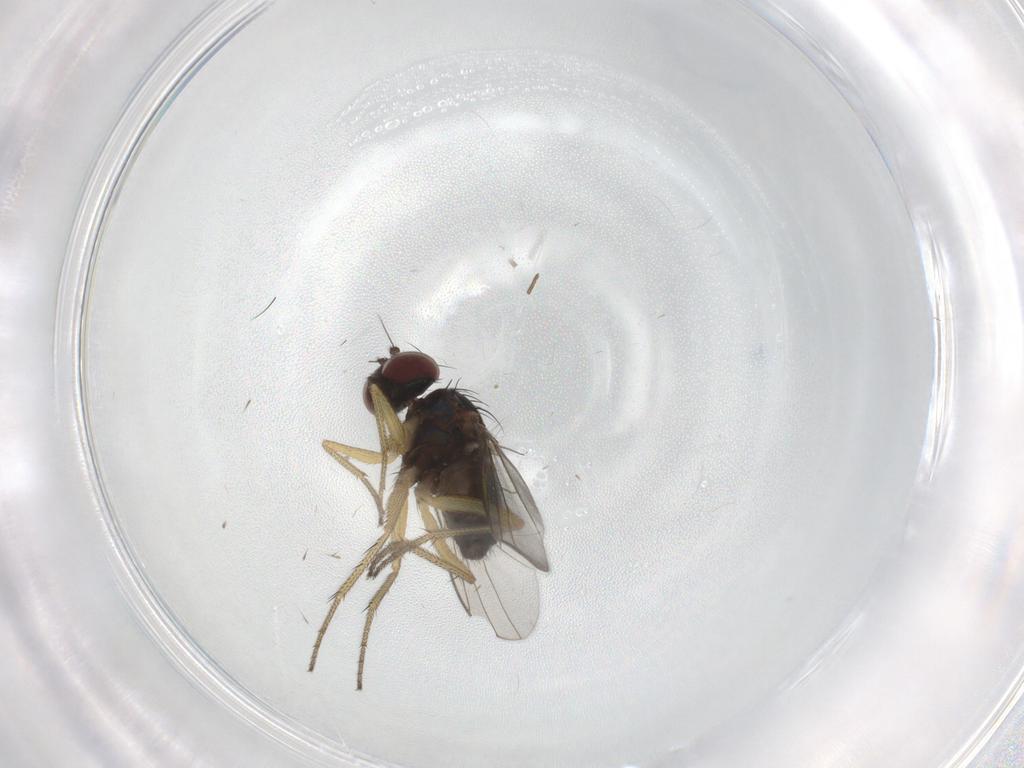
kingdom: Animalia
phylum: Arthropoda
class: Insecta
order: Diptera
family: Dolichopodidae
